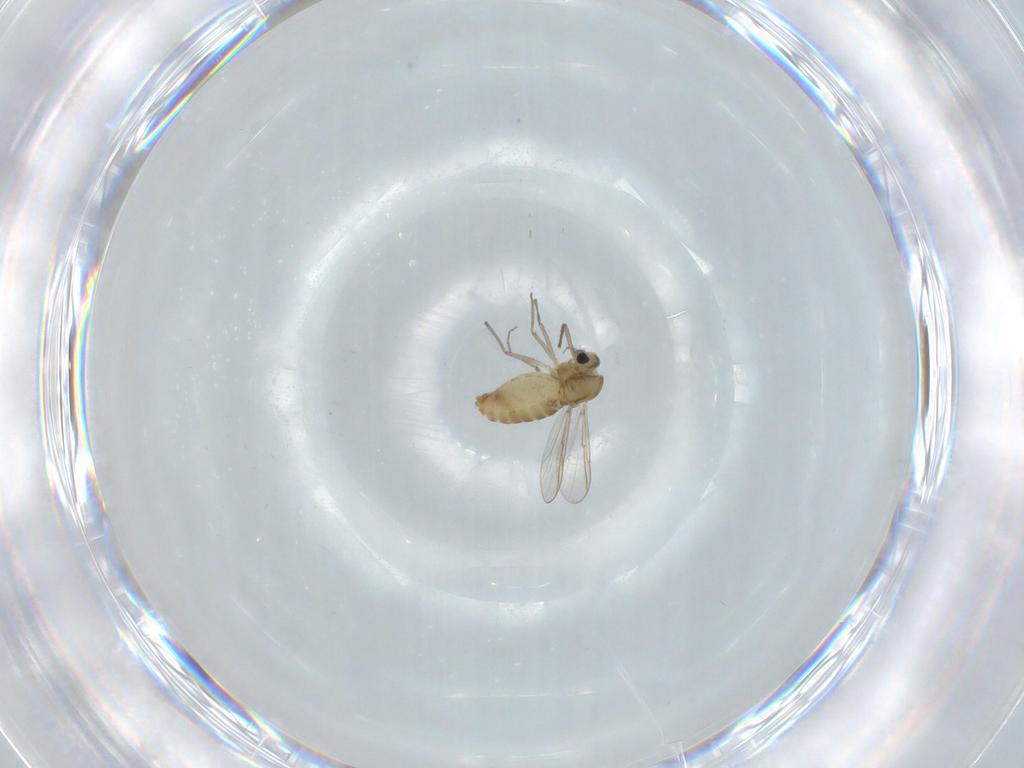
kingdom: Animalia
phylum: Arthropoda
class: Insecta
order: Diptera
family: Chironomidae
